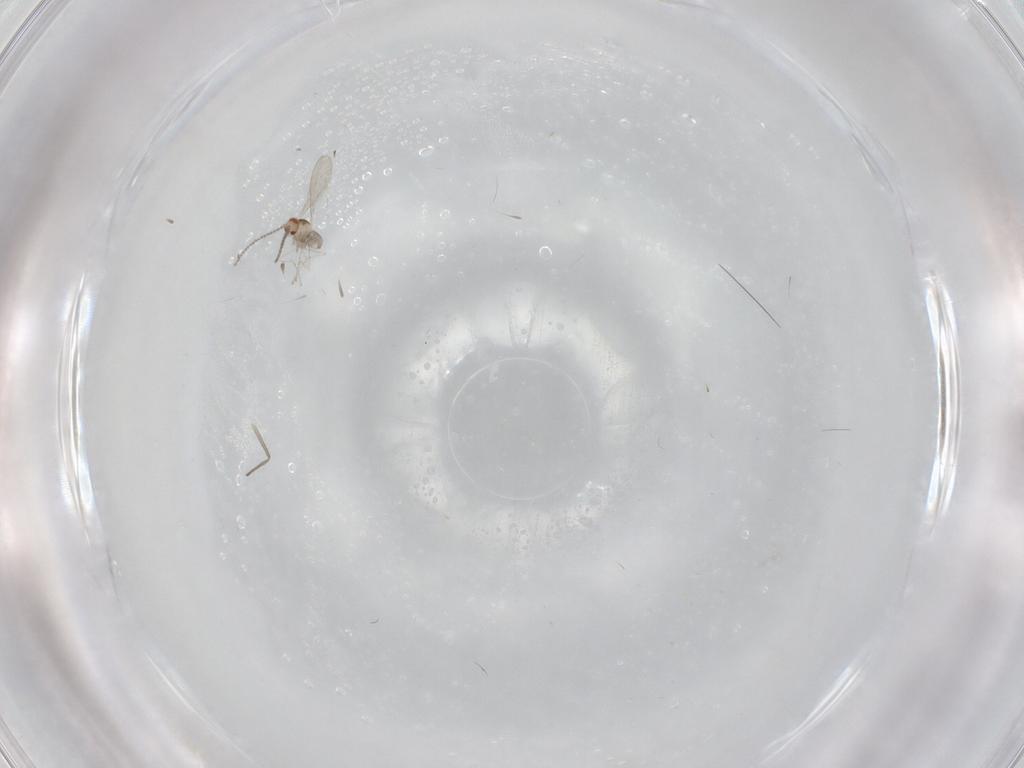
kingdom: Animalia
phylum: Arthropoda
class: Insecta
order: Diptera
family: Cecidomyiidae
